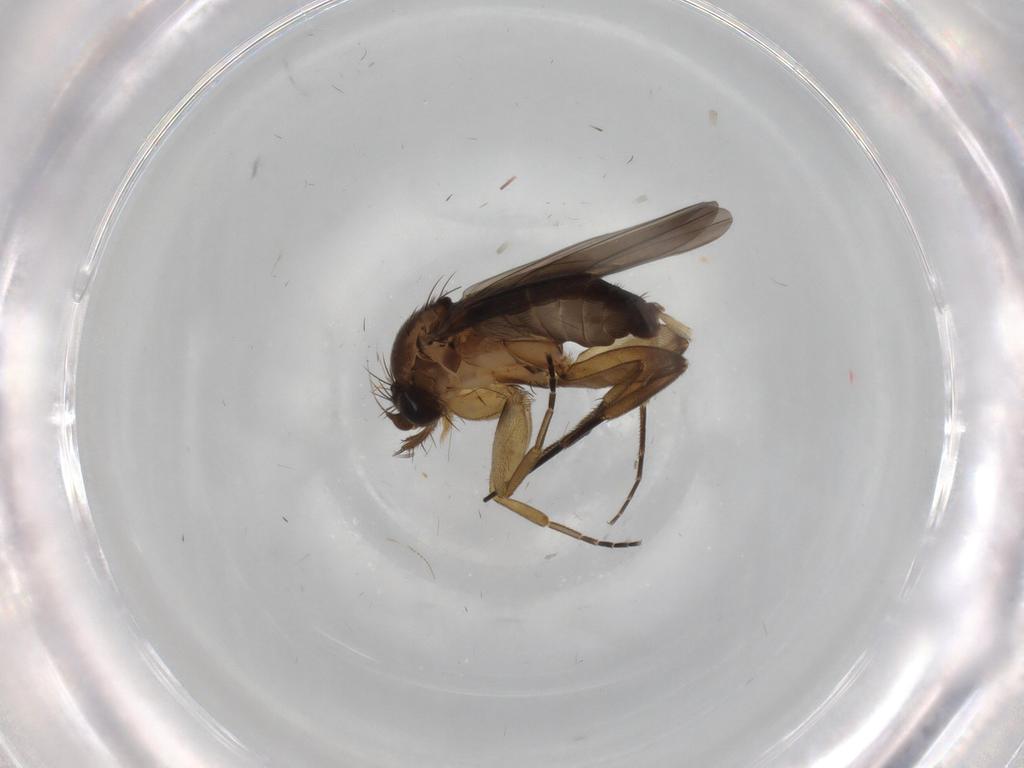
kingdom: Animalia
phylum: Arthropoda
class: Insecta
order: Diptera
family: Phoridae
